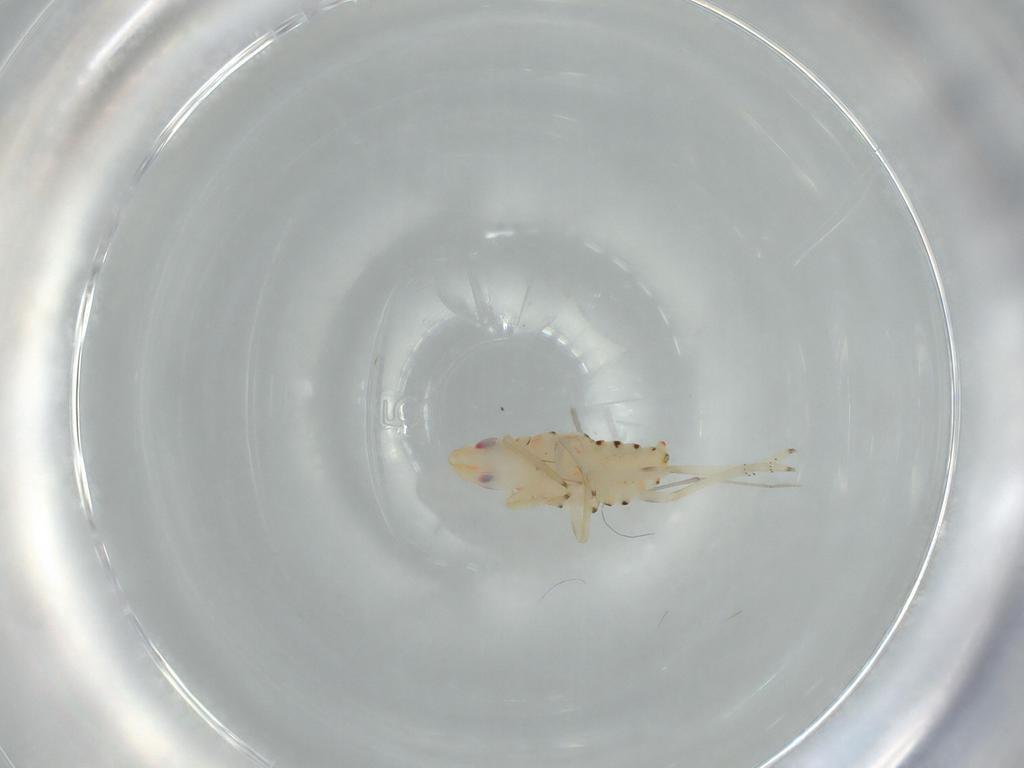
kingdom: Animalia
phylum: Arthropoda
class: Insecta
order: Hemiptera
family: Tropiduchidae
